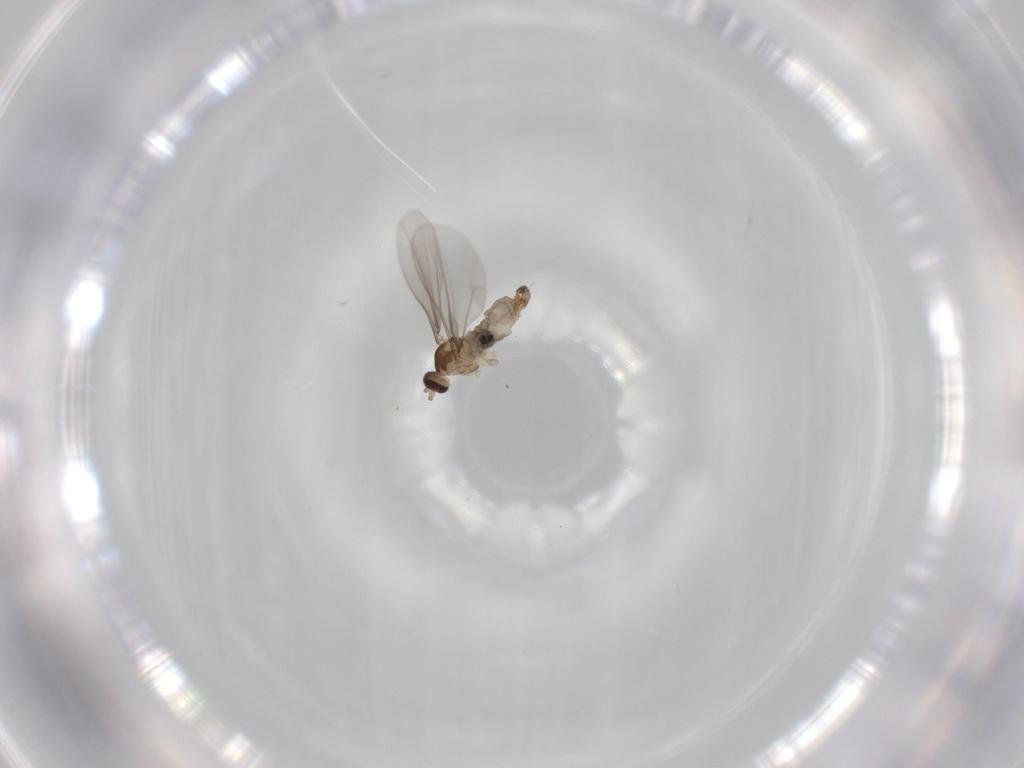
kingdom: Animalia
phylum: Arthropoda
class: Insecta
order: Diptera
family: Cecidomyiidae
